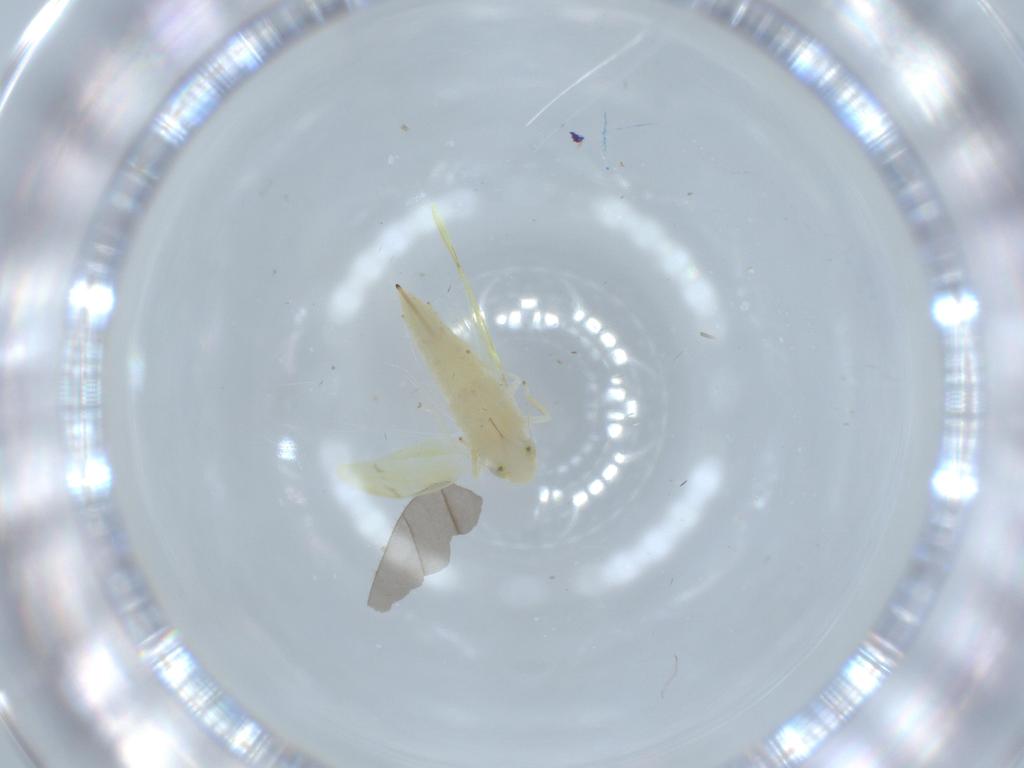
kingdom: Animalia
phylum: Arthropoda
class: Insecta
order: Hemiptera
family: Cicadellidae
